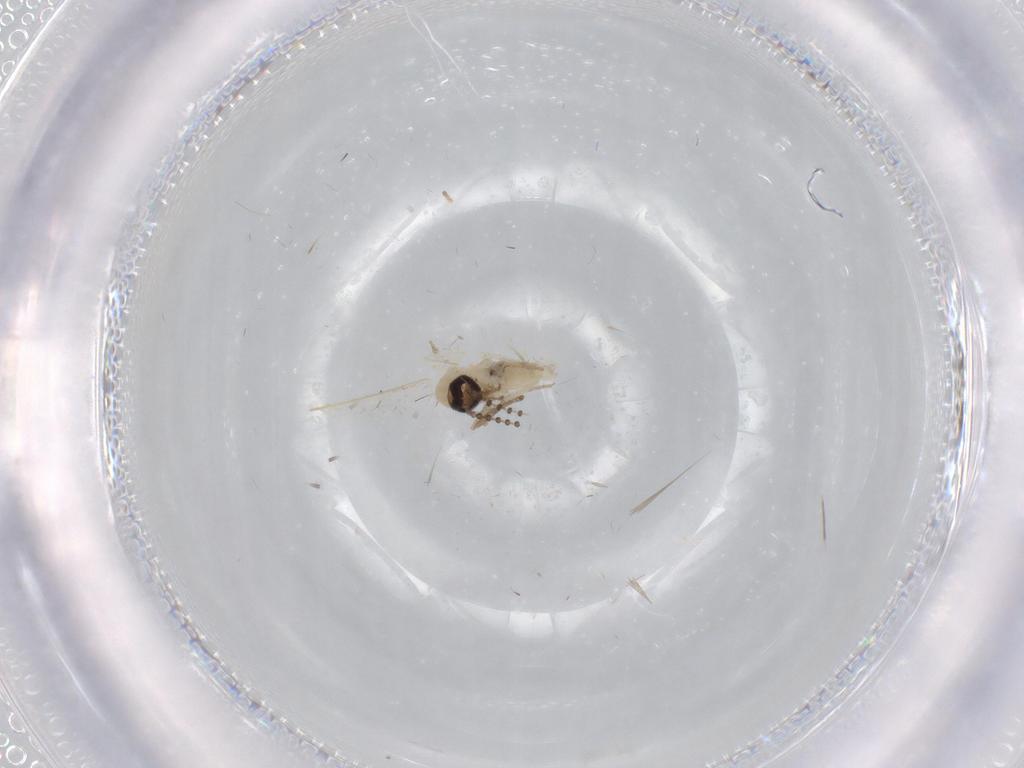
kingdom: Animalia
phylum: Arthropoda
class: Insecta
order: Diptera
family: Psychodidae
